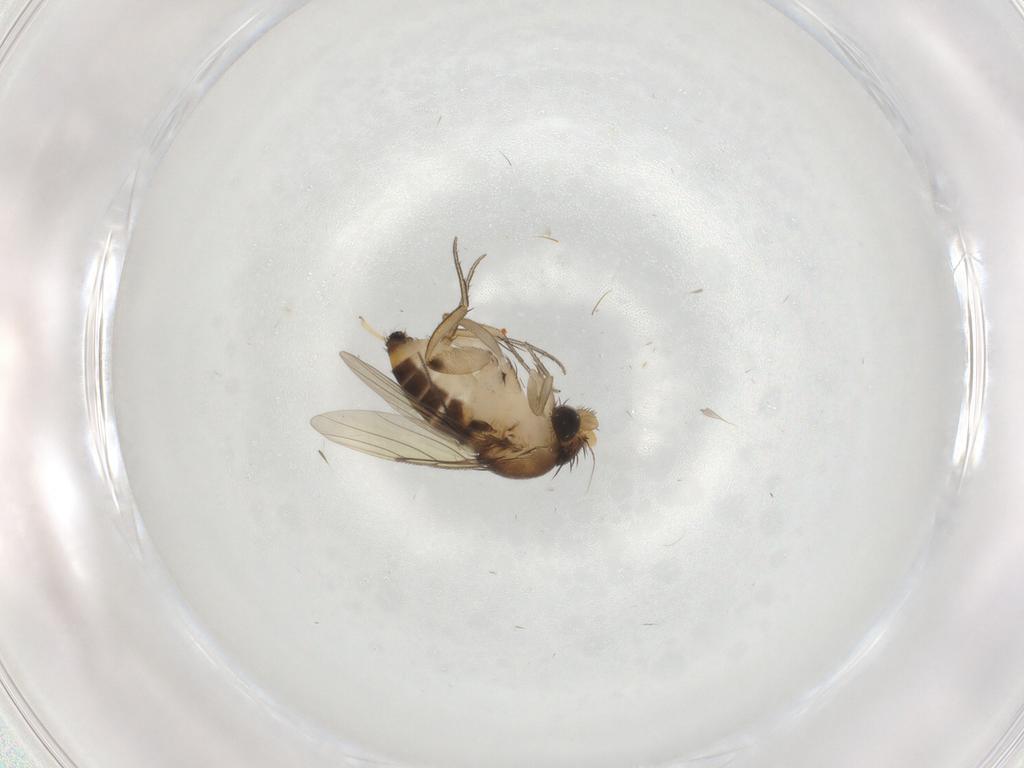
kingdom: Animalia
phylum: Arthropoda
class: Insecta
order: Diptera
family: Phoridae
